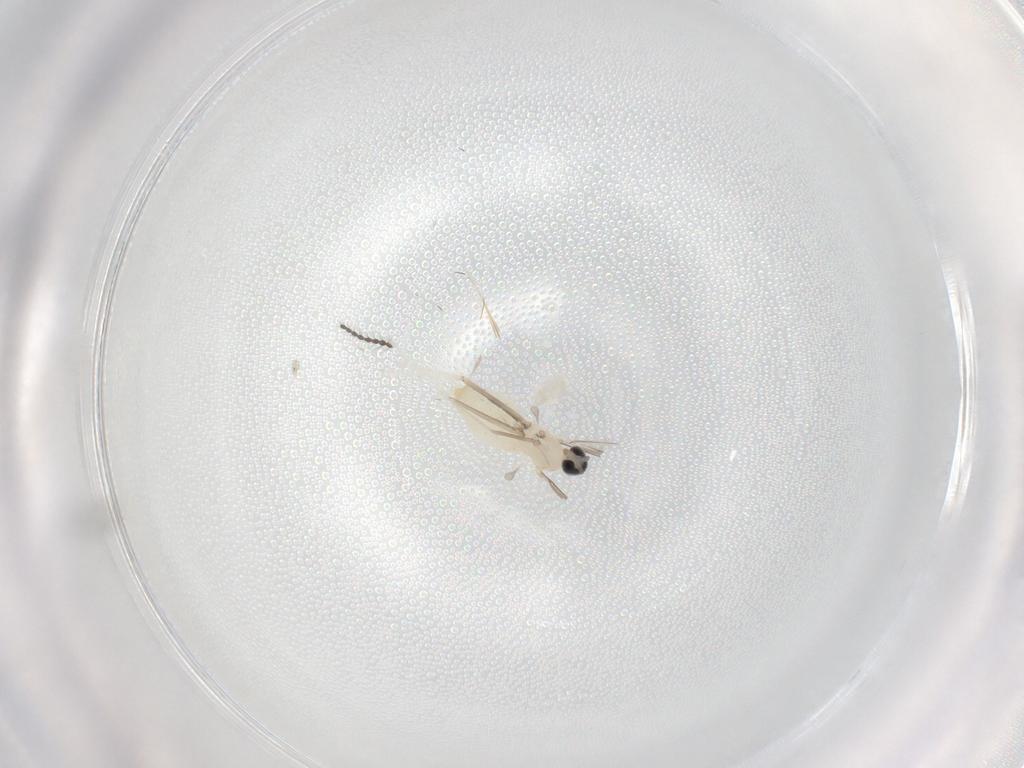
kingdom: Animalia
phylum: Arthropoda
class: Insecta
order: Diptera
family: Cecidomyiidae
